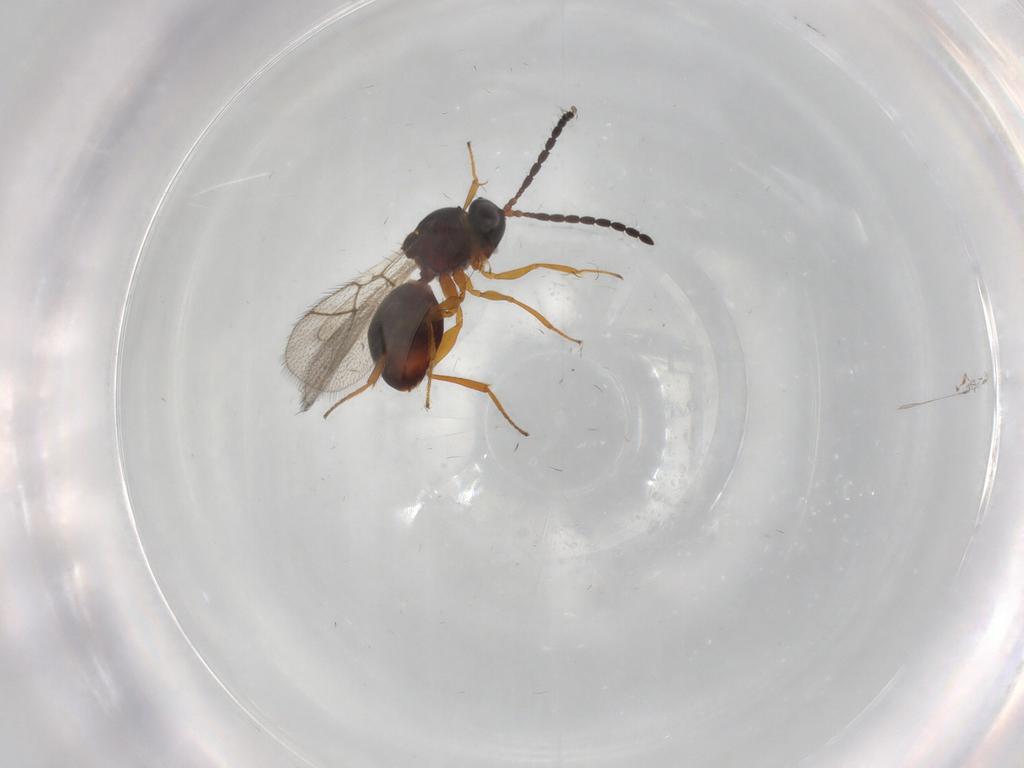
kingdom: Animalia
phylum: Arthropoda
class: Insecta
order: Hymenoptera
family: Figitidae
